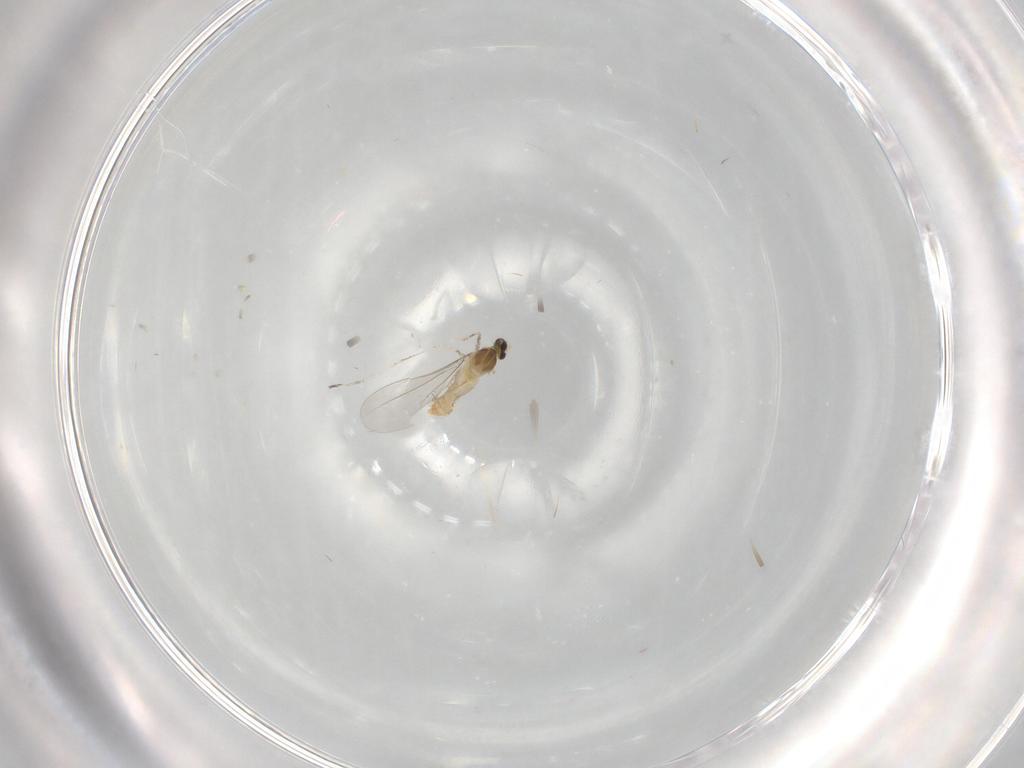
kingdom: Animalia
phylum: Arthropoda
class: Insecta
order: Diptera
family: Cecidomyiidae
